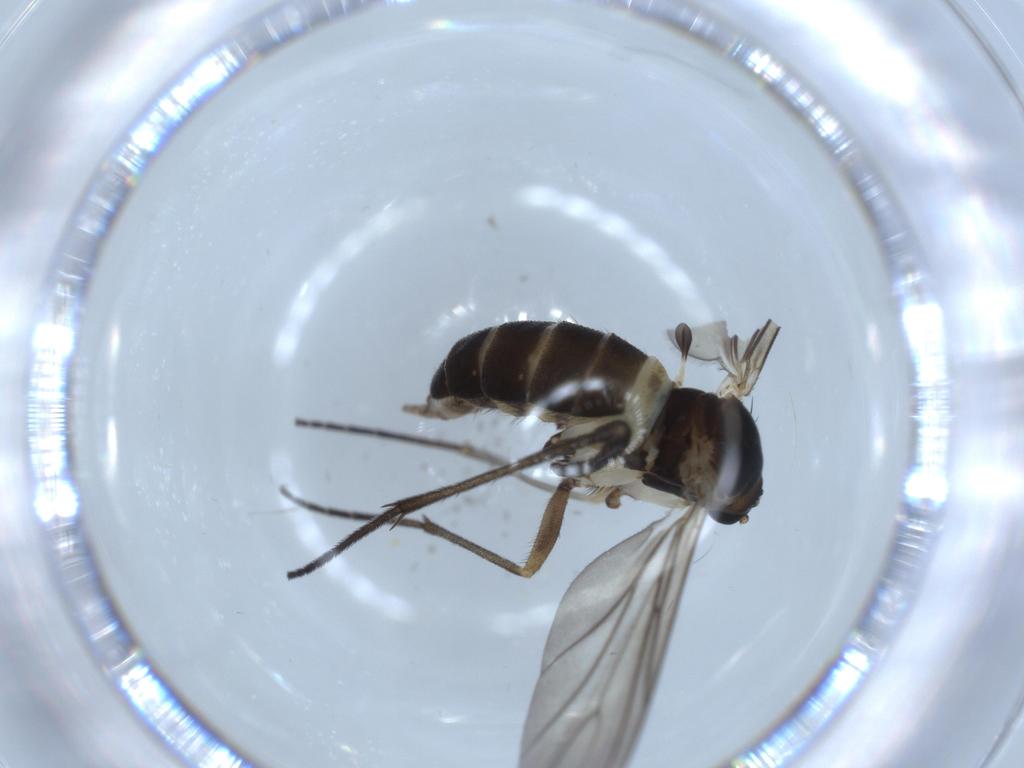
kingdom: Animalia
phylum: Arthropoda
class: Insecta
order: Diptera
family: Sciaridae
